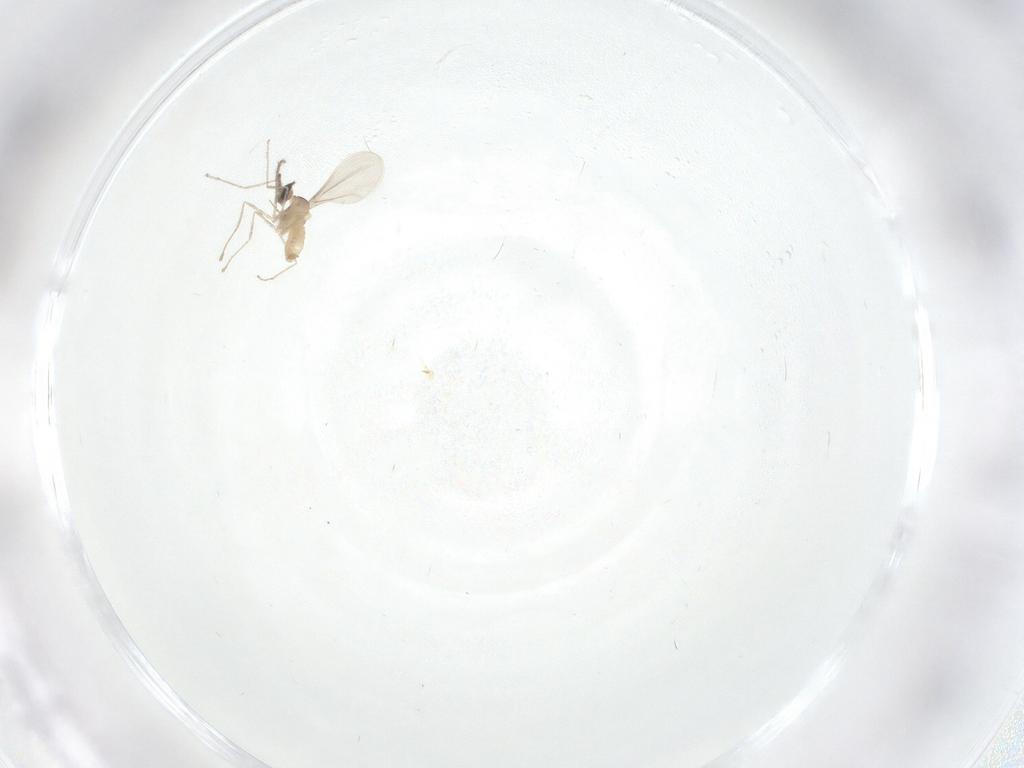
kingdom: Animalia
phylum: Arthropoda
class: Insecta
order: Diptera
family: Cecidomyiidae
